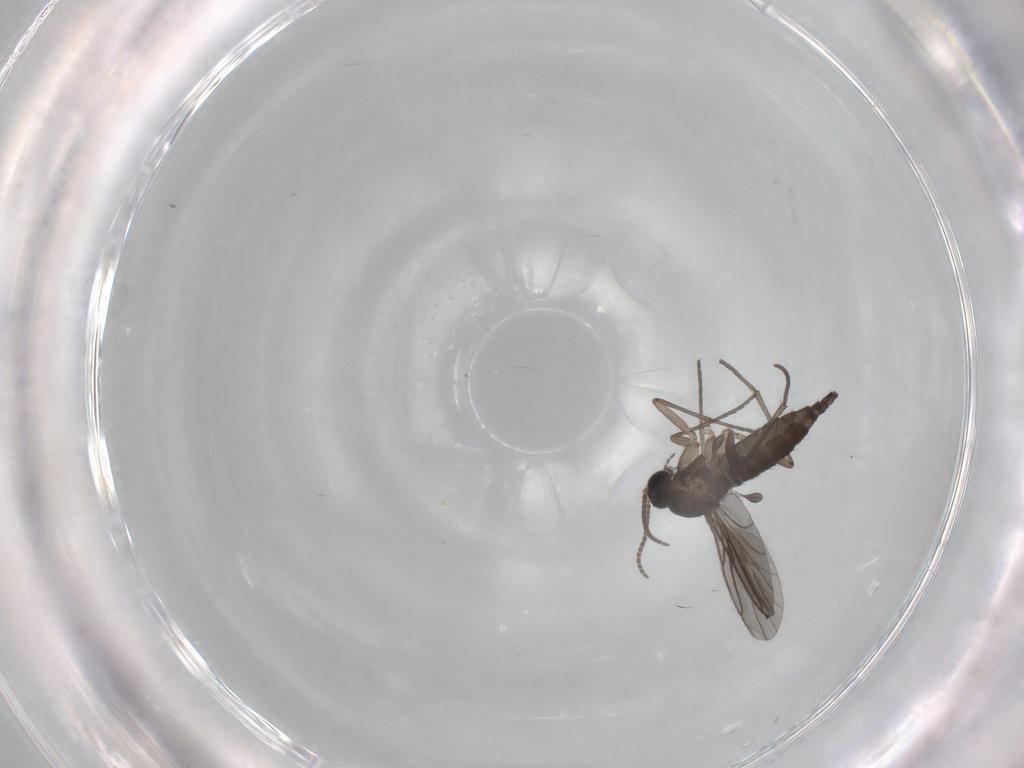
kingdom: Animalia
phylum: Arthropoda
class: Insecta
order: Diptera
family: Sciaridae
